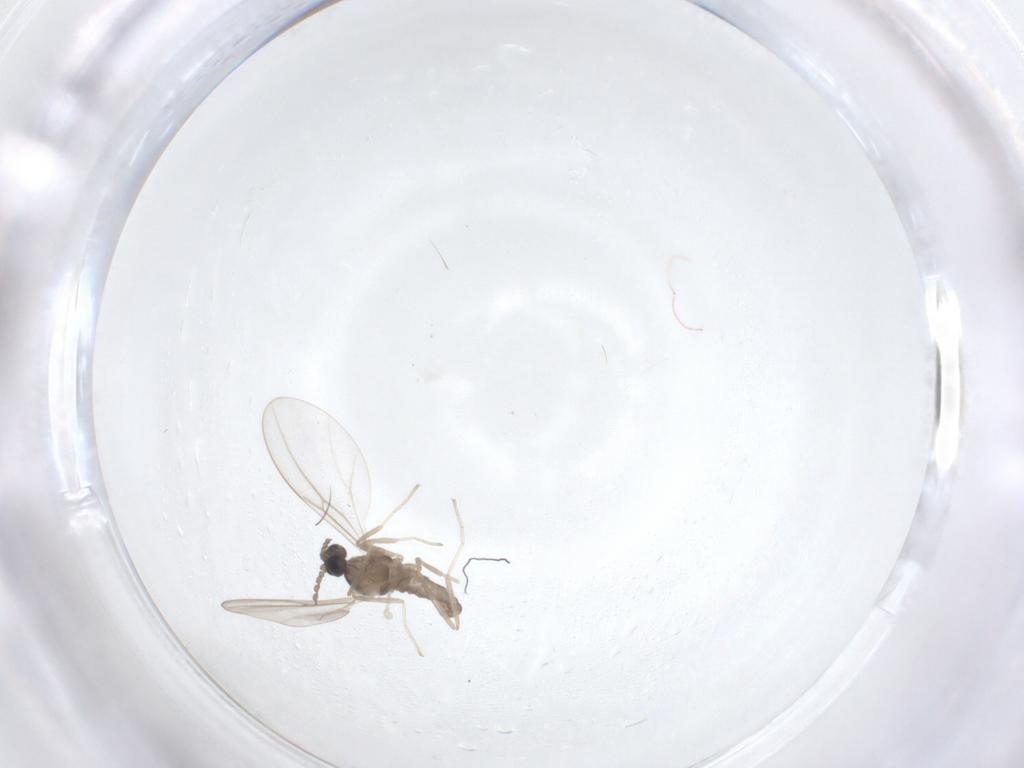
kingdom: Animalia
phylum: Arthropoda
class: Insecta
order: Diptera
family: Cecidomyiidae
